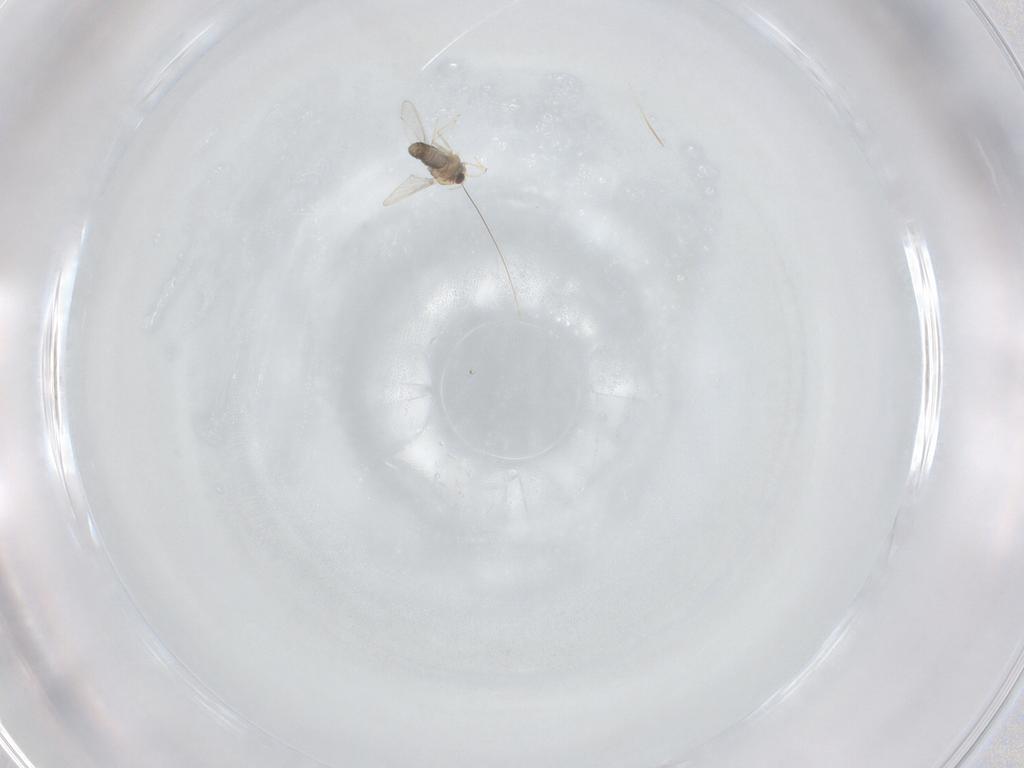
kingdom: Animalia
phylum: Arthropoda
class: Insecta
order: Diptera
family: Chironomidae
